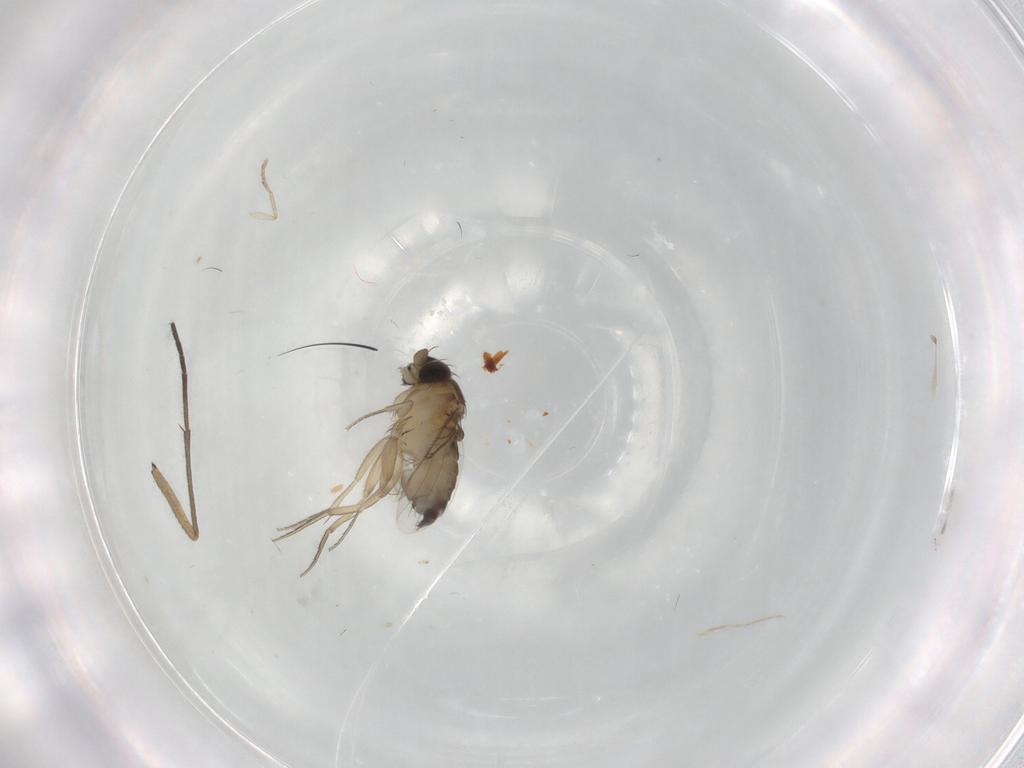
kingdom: Animalia
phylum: Arthropoda
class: Insecta
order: Diptera
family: Phoridae
